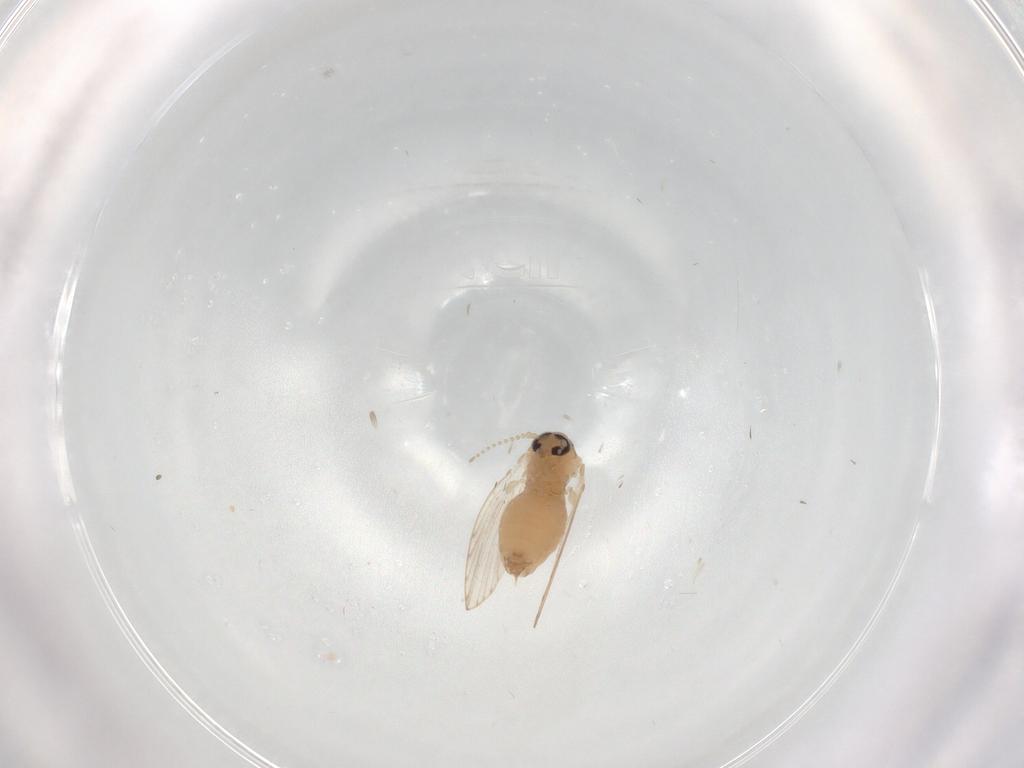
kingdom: Animalia
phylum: Arthropoda
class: Insecta
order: Diptera
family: Psychodidae
